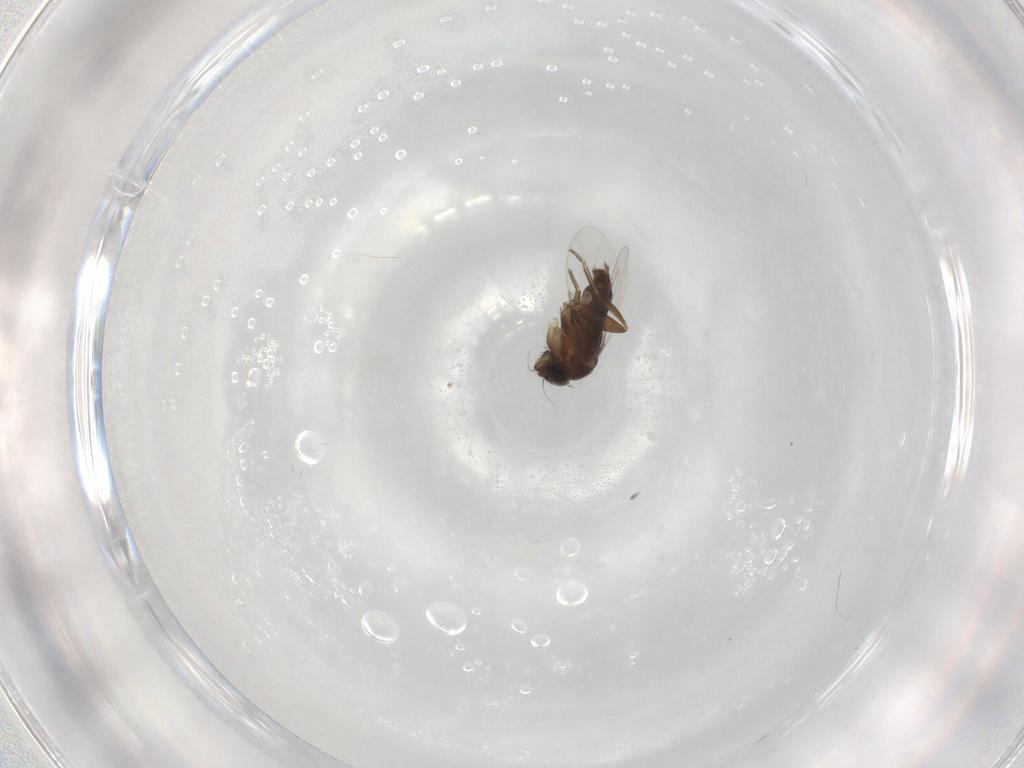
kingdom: Animalia
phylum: Arthropoda
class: Insecta
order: Diptera
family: Phoridae
